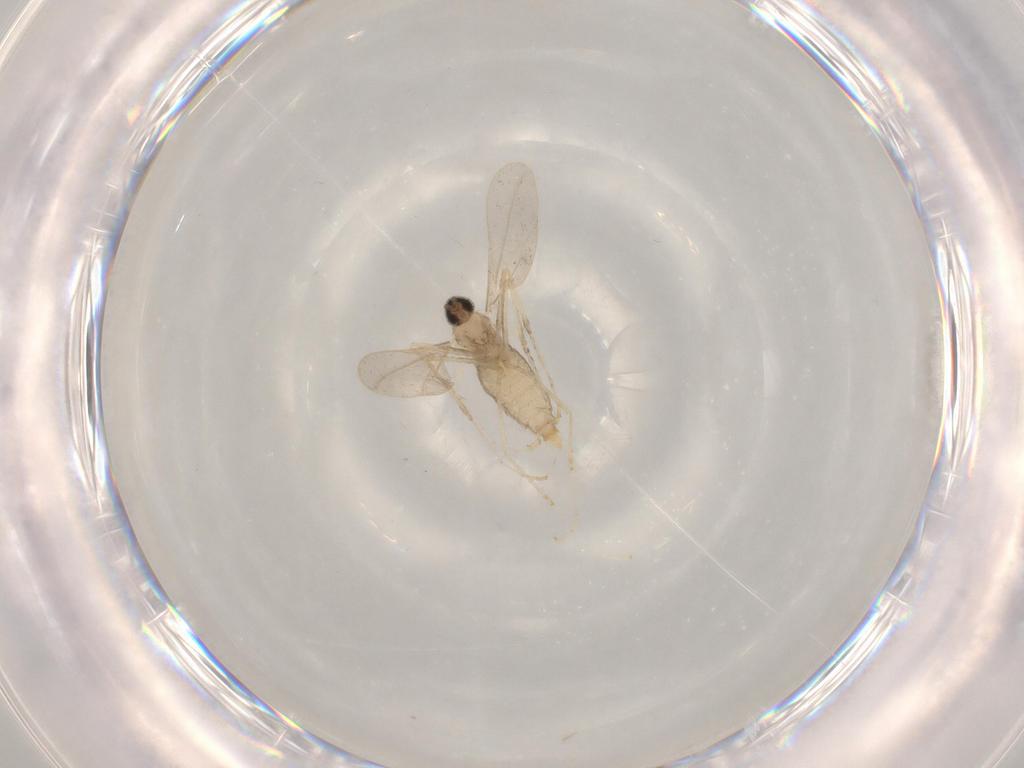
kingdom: Animalia
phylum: Arthropoda
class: Insecta
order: Diptera
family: Cecidomyiidae
